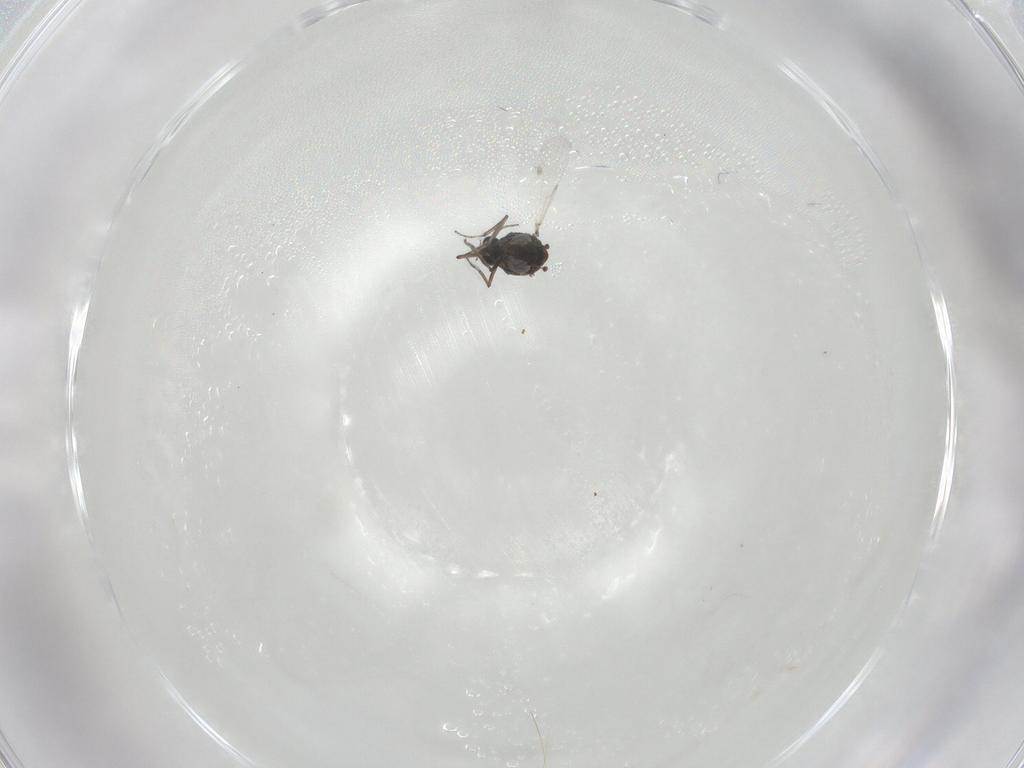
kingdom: Animalia
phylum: Arthropoda
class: Insecta
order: Diptera
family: Ceratopogonidae
